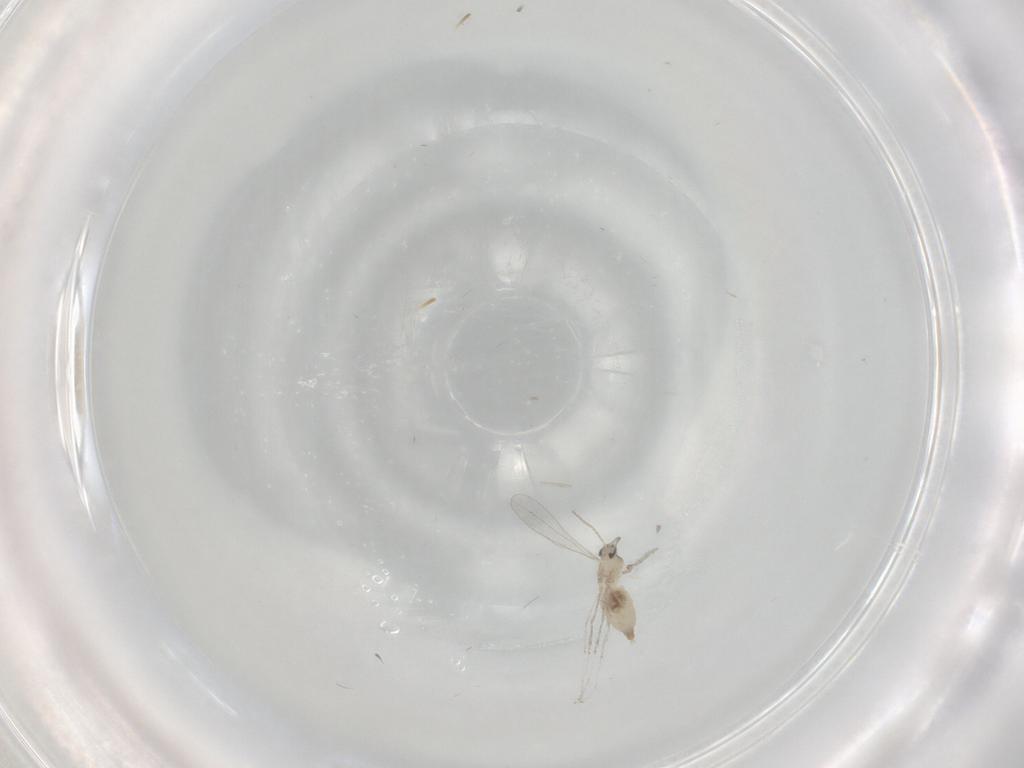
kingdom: Animalia
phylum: Arthropoda
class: Insecta
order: Diptera
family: Cecidomyiidae
